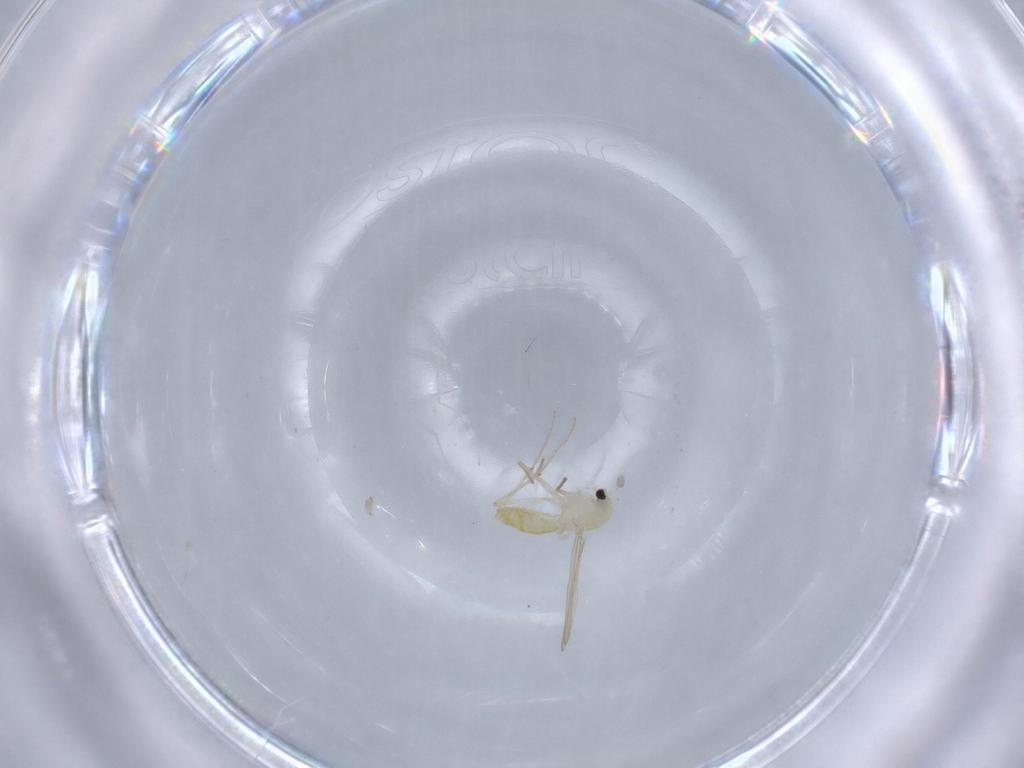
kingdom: Animalia
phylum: Arthropoda
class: Insecta
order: Diptera
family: Chironomidae
